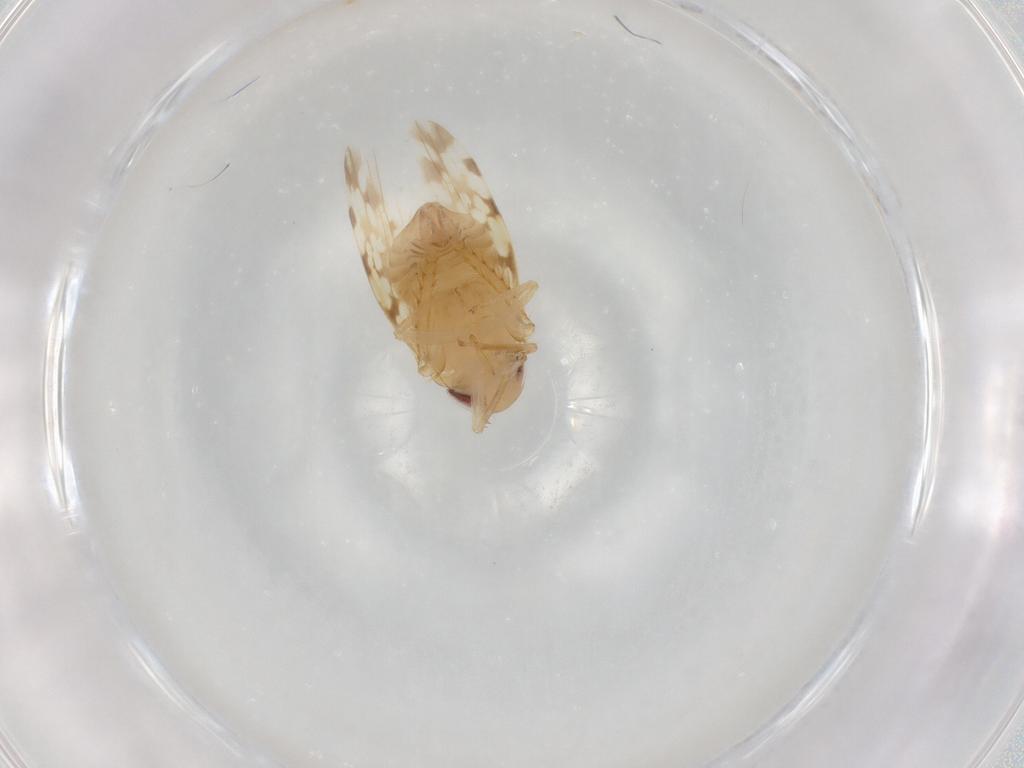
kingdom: Animalia
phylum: Arthropoda
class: Insecta
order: Hemiptera
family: Cicadellidae
